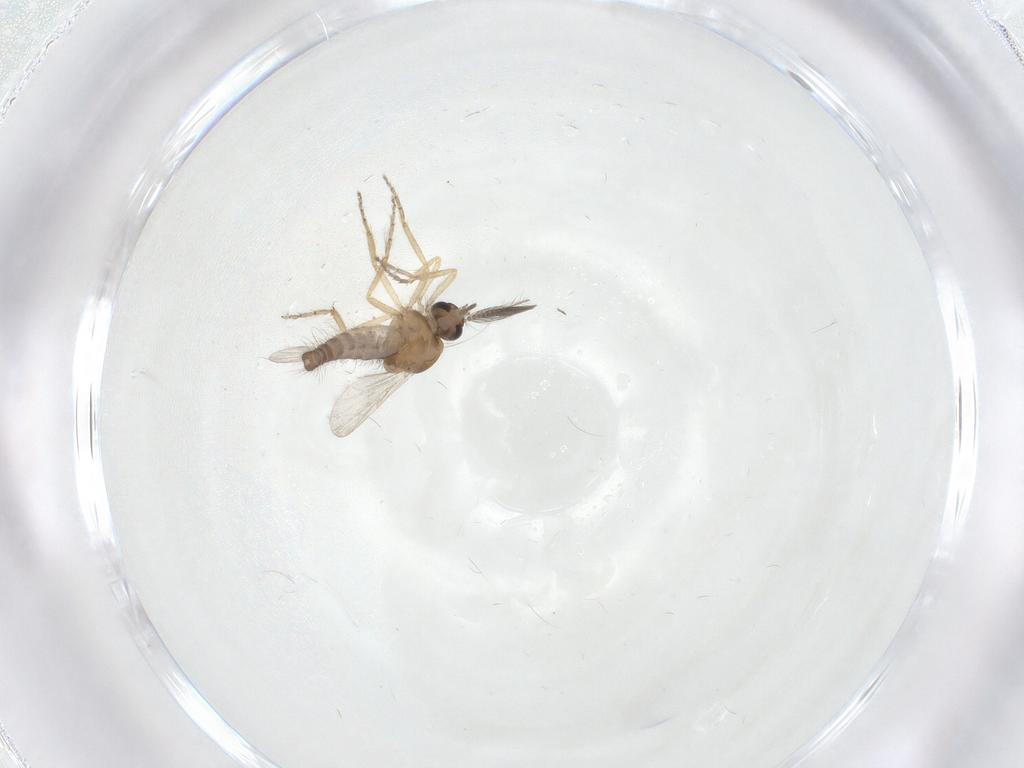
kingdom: Animalia
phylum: Arthropoda
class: Insecta
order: Diptera
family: Ceratopogonidae
